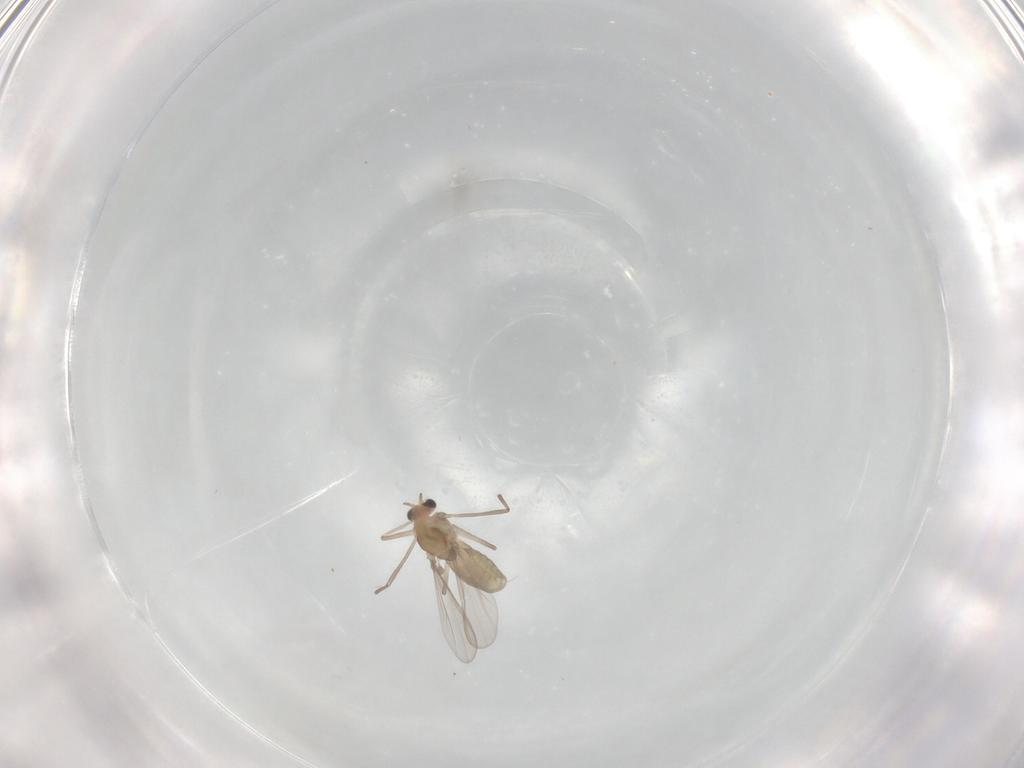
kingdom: Animalia
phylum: Arthropoda
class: Insecta
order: Diptera
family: Chironomidae
